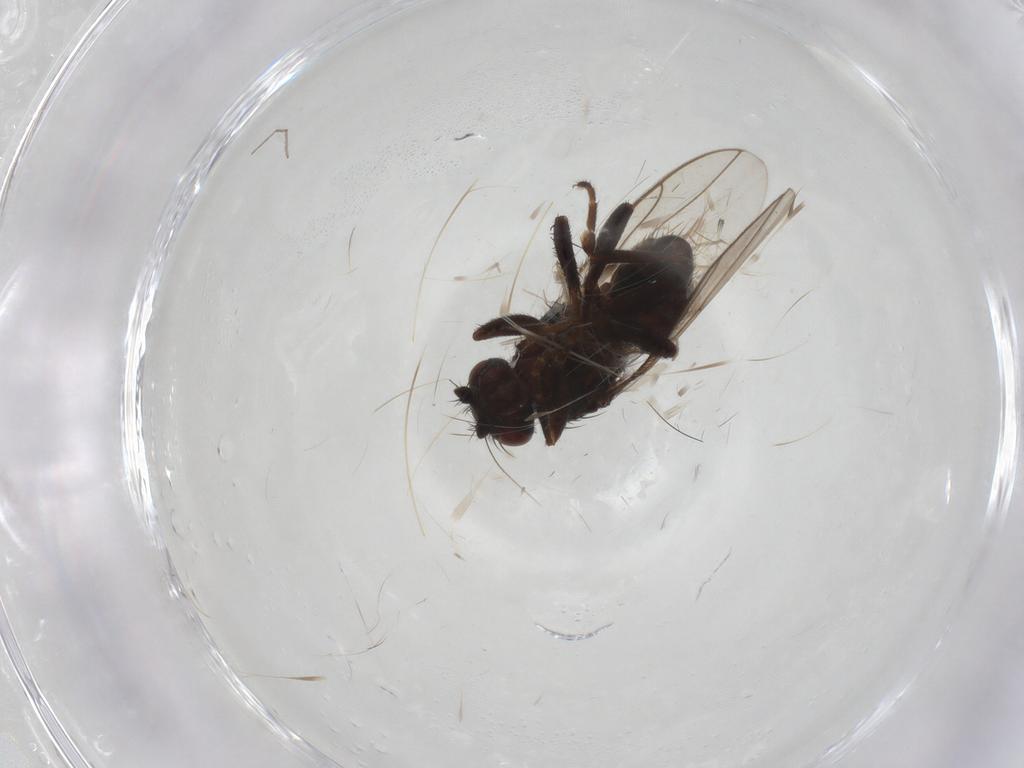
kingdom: Animalia
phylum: Arthropoda
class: Insecta
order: Diptera
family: Sphaeroceridae
